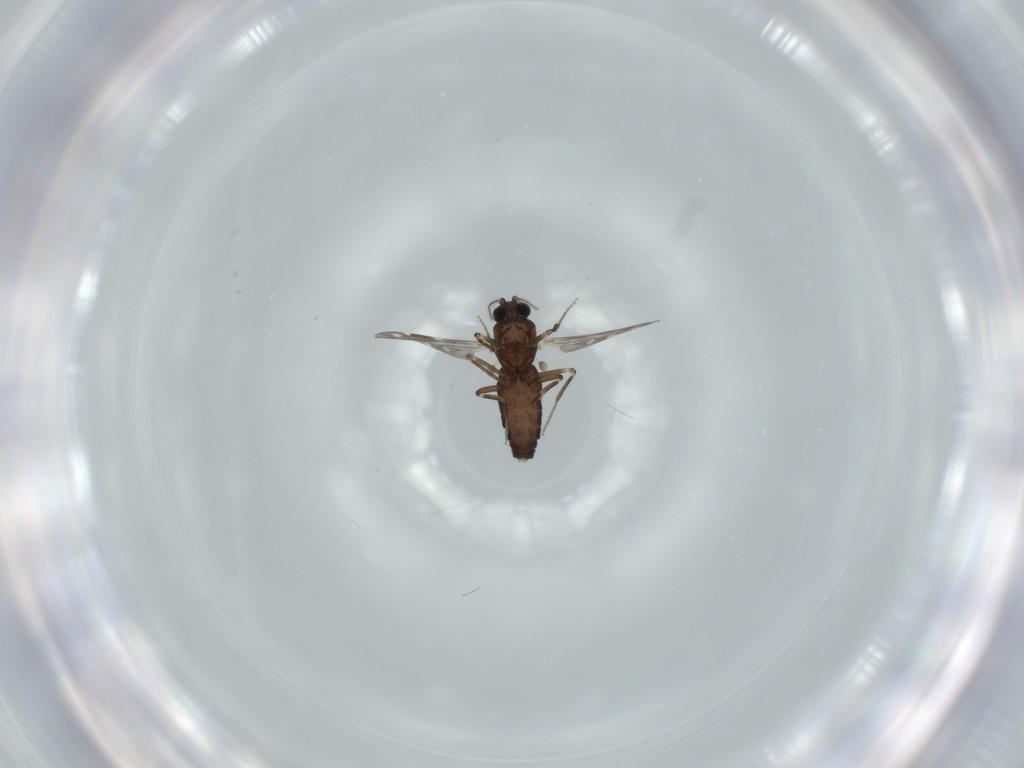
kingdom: Animalia
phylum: Arthropoda
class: Insecta
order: Diptera
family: Ceratopogonidae
